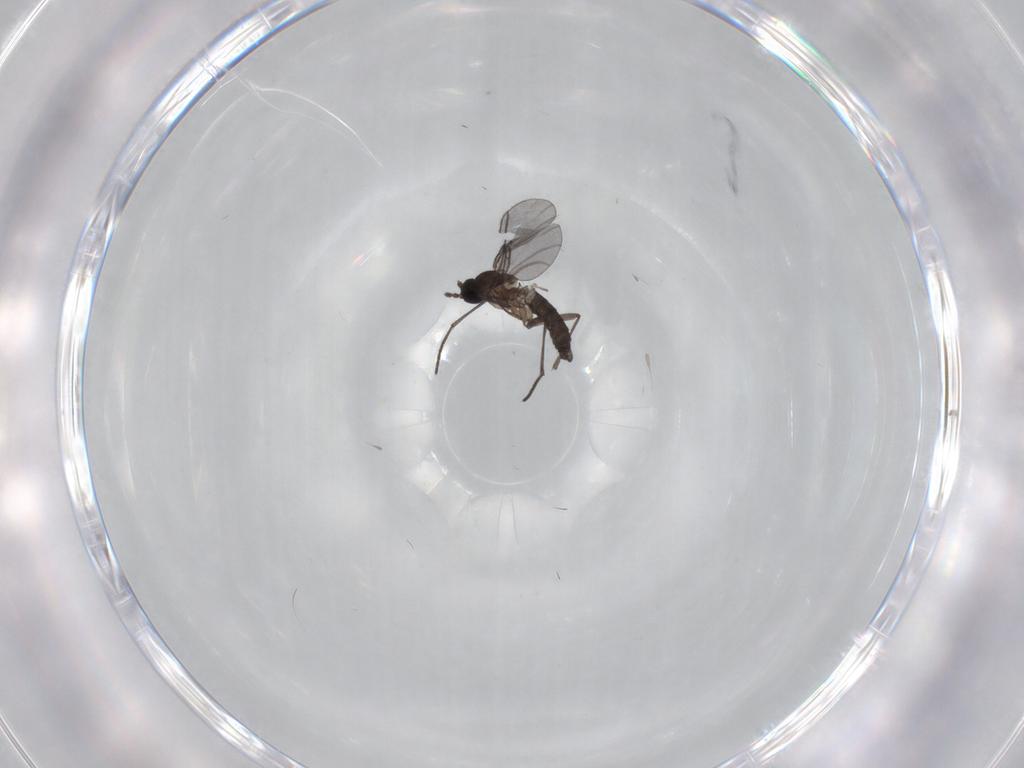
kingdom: Animalia
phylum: Arthropoda
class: Insecta
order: Diptera
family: Cecidomyiidae
